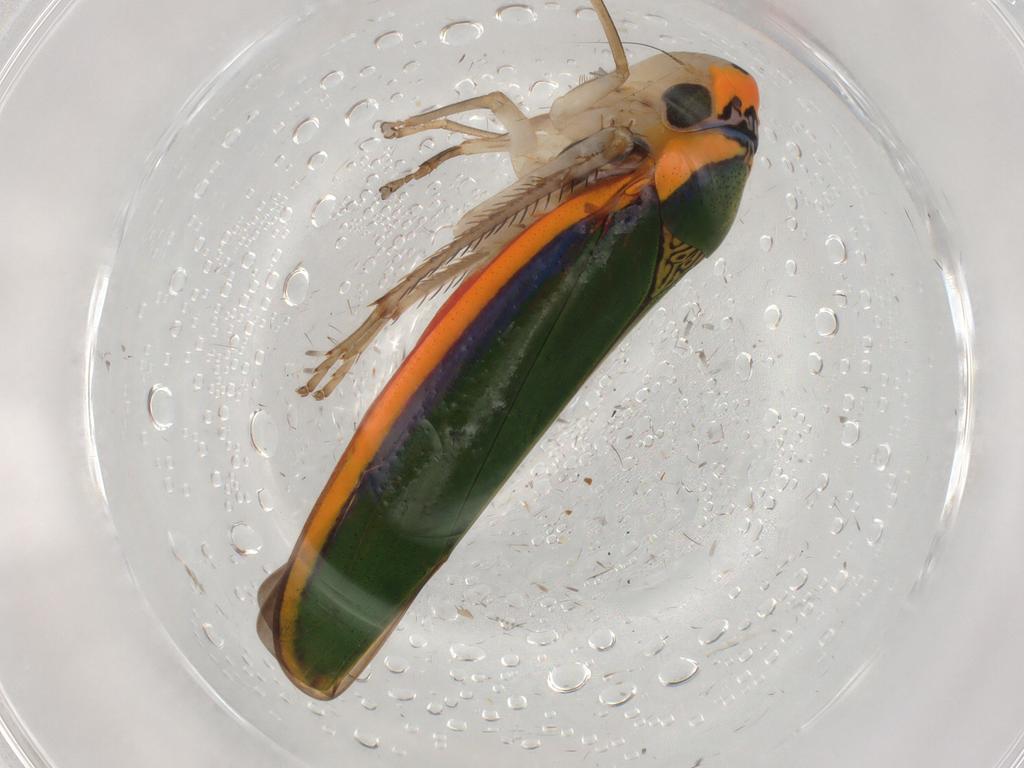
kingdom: Animalia
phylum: Arthropoda
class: Insecta
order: Hemiptera
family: Cicadellidae
